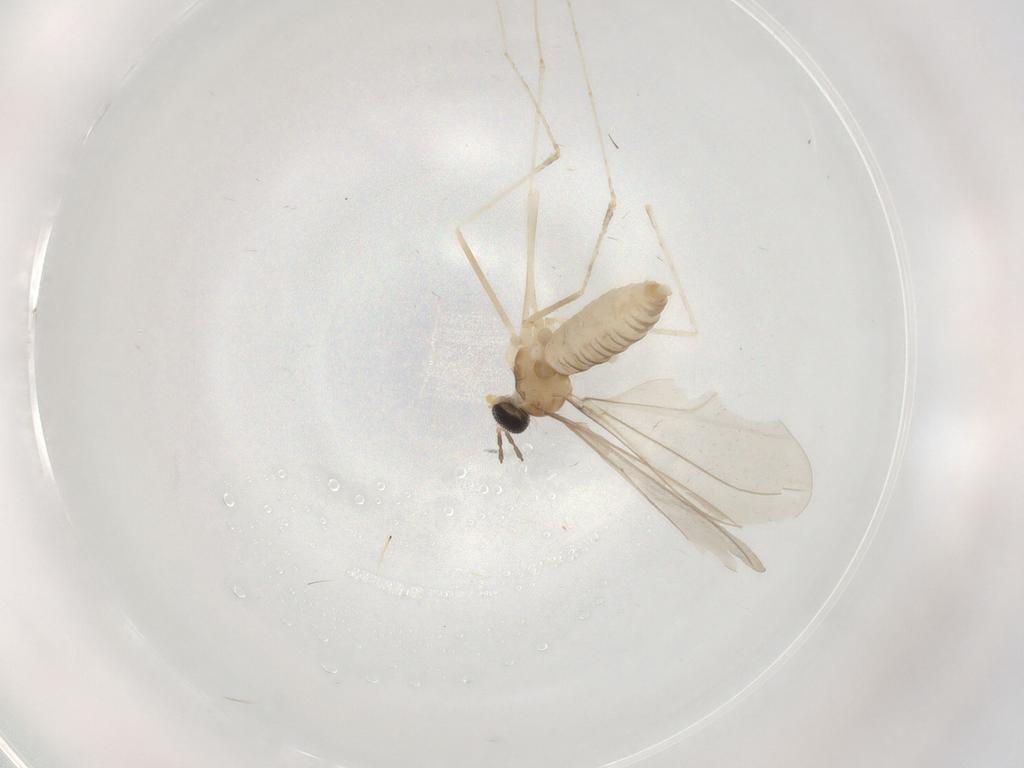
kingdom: Animalia
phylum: Arthropoda
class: Insecta
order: Diptera
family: Cecidomyiidae
